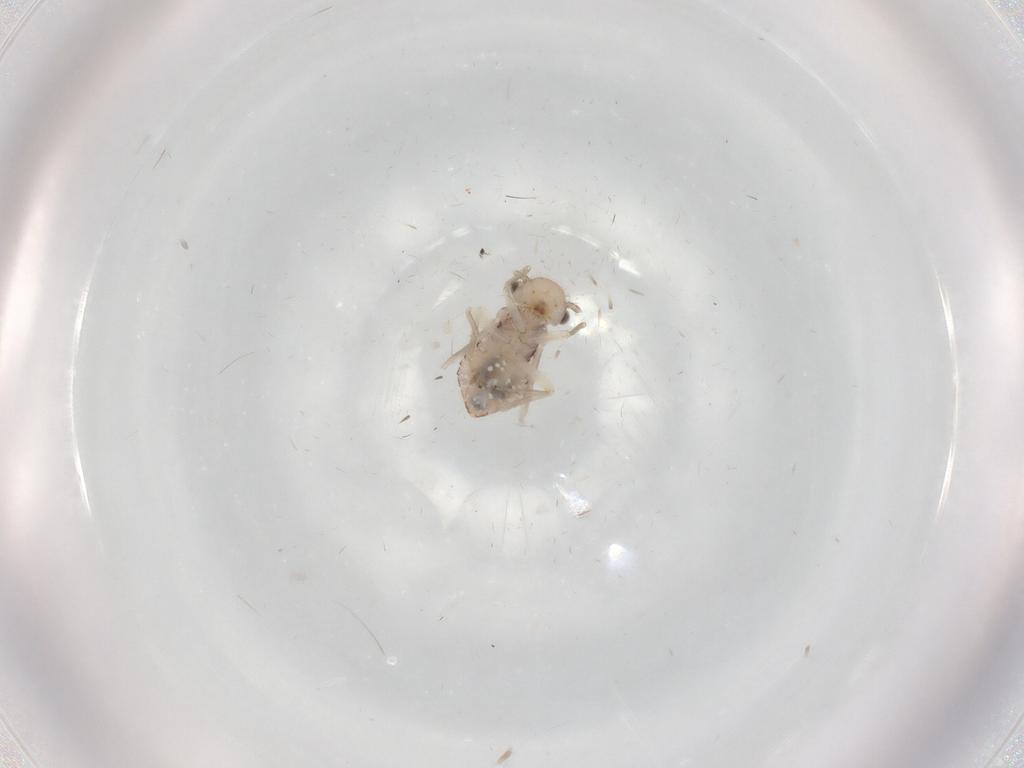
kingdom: Animalia
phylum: Arthropoda
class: Insecta
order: Psocodea
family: Ectopsocidae
